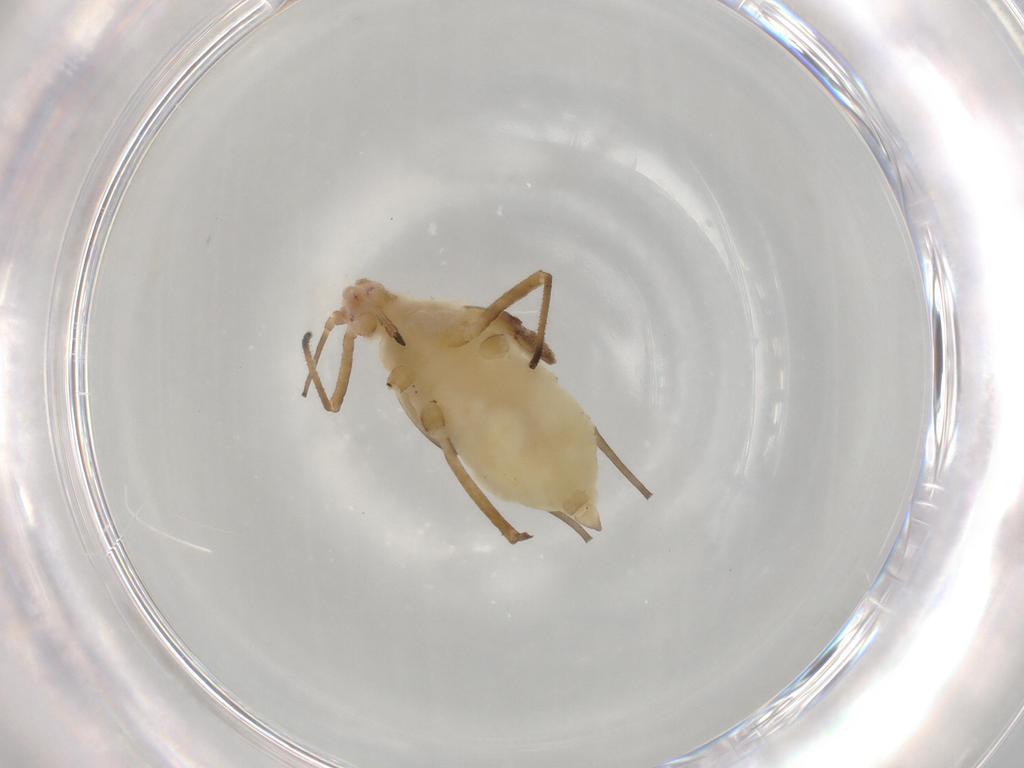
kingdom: Animalia
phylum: Arthropoda
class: Insecta
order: Hemiptera
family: Aphididae
